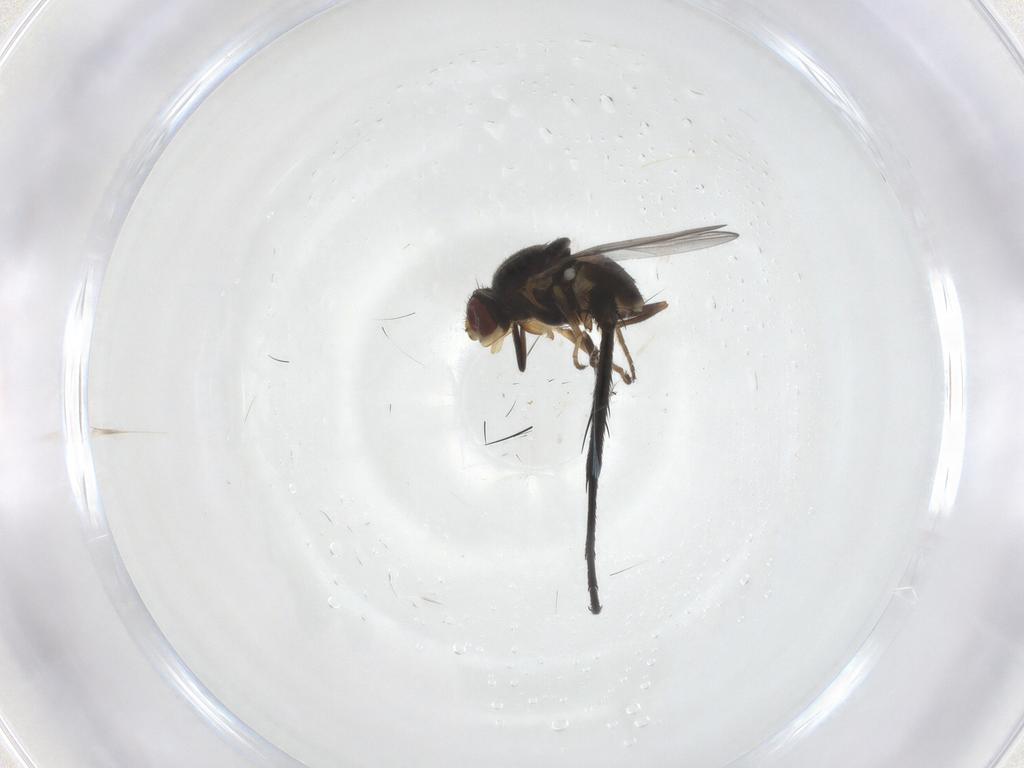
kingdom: Animalia
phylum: Arthropoda
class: Insecta
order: Diptera
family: Chloropidae
